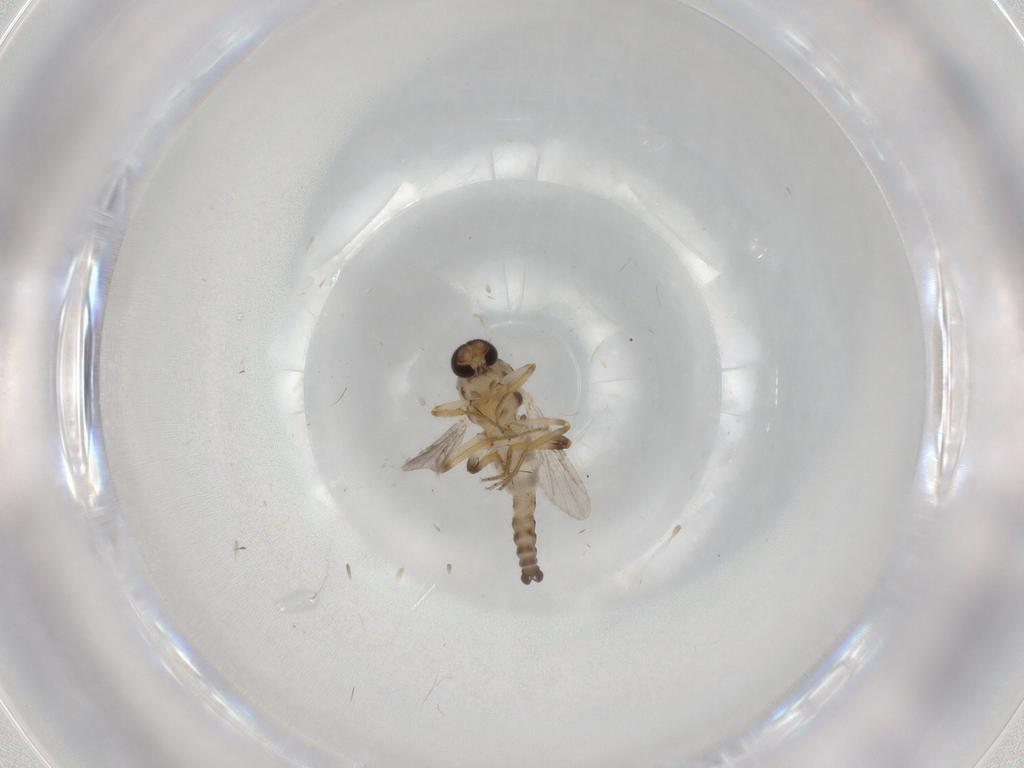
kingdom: Animalia
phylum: Arthropoda
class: Insecta
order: Diptera
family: Ceratopogonidae
